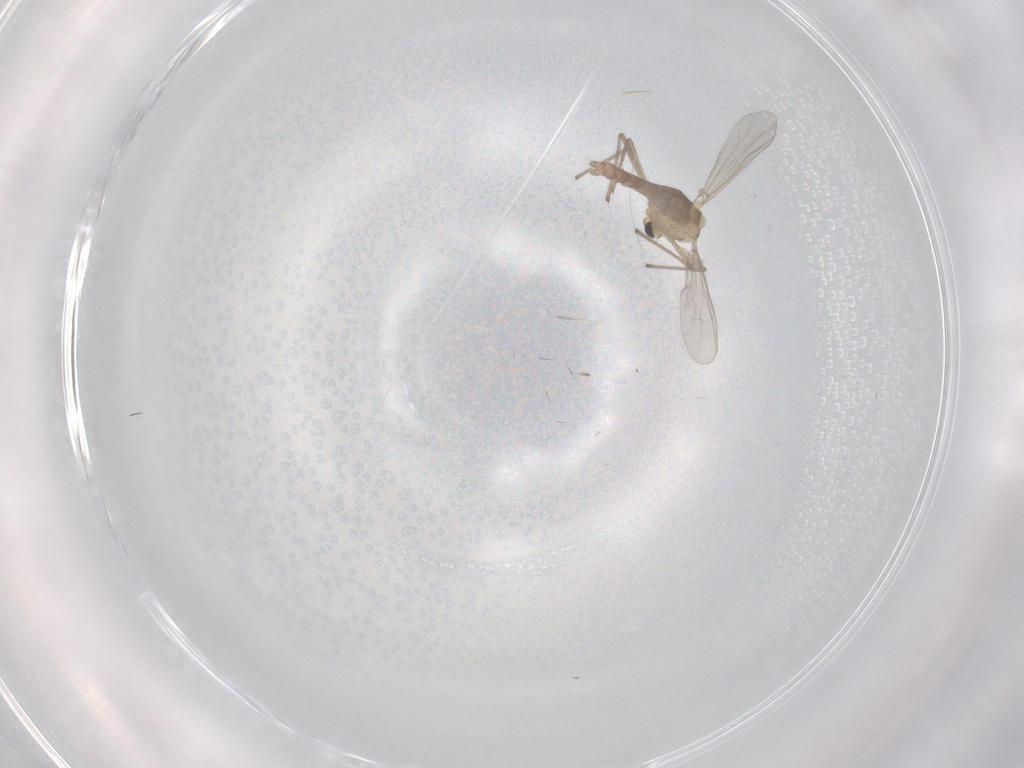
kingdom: Animalia
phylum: Arthropoda
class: Insecta
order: Diptera
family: Chironomidae
